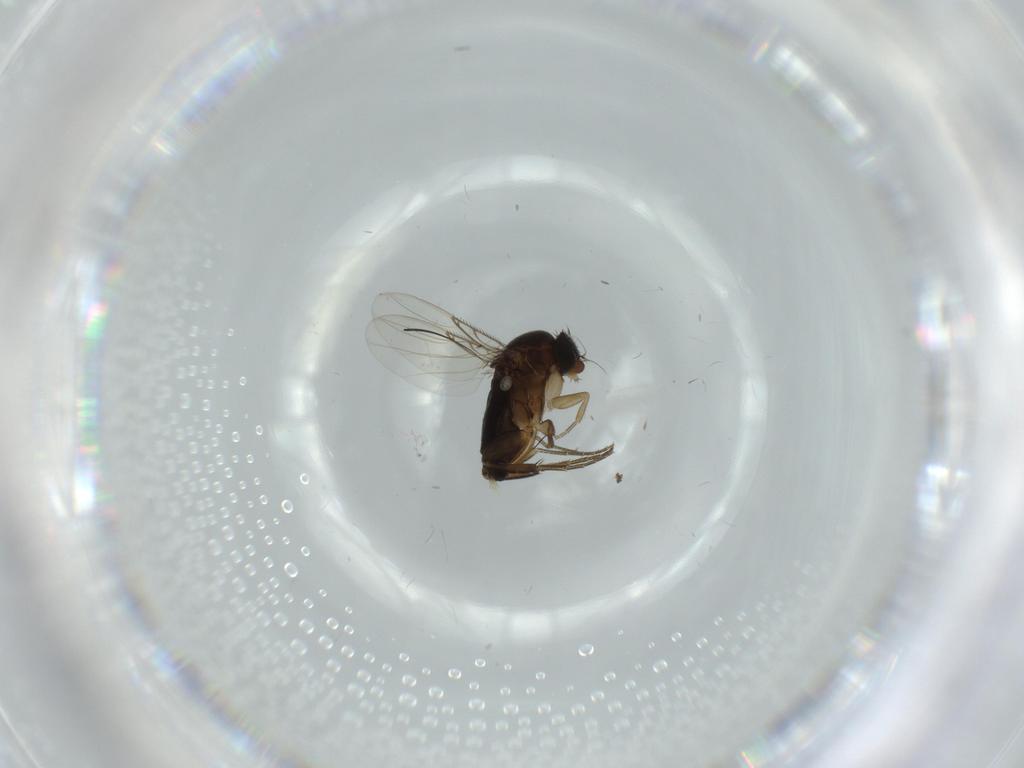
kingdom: Animalia
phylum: Arthropoda
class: Insecta
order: Diptera
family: Phoridae
